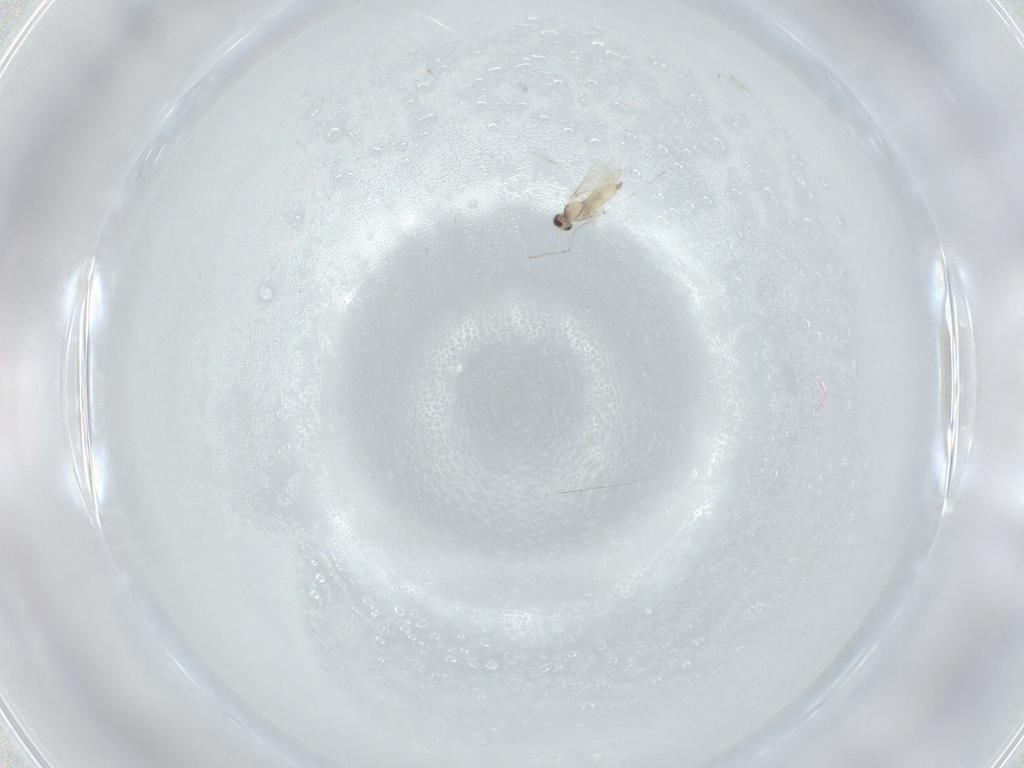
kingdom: Animalia
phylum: Arthropoda
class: Insecta
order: Diptera
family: Cecidomyiidae
